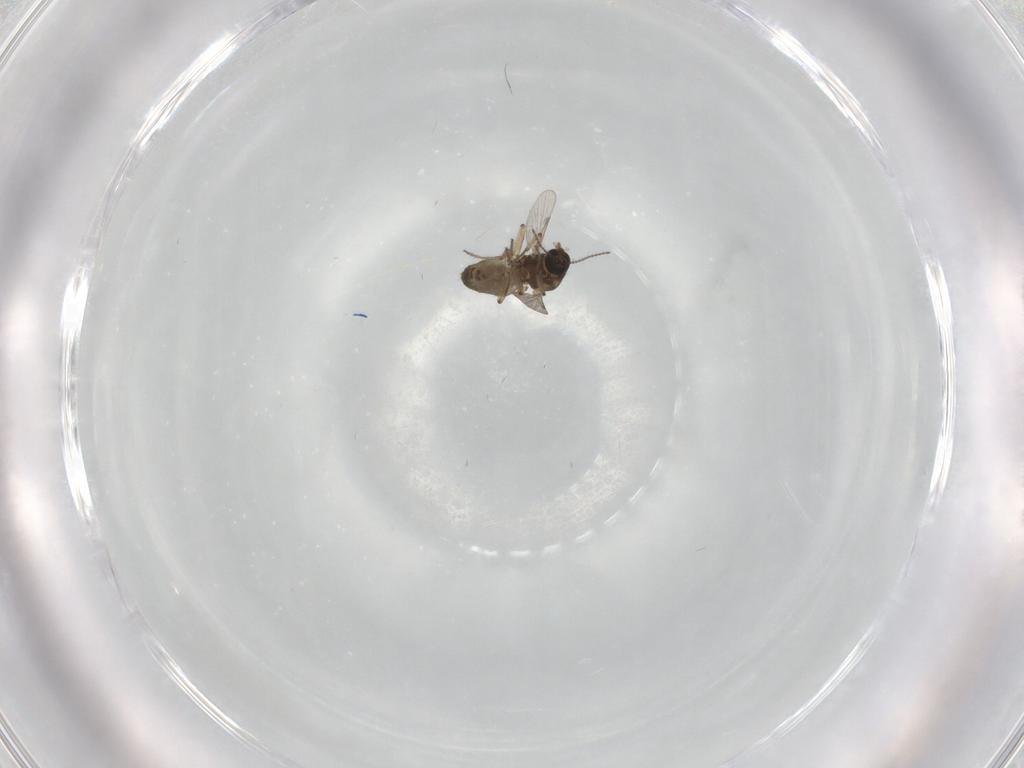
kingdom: Animalia
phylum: Arthropoda
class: Insecta
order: Diptera
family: Ceratopogonidae
